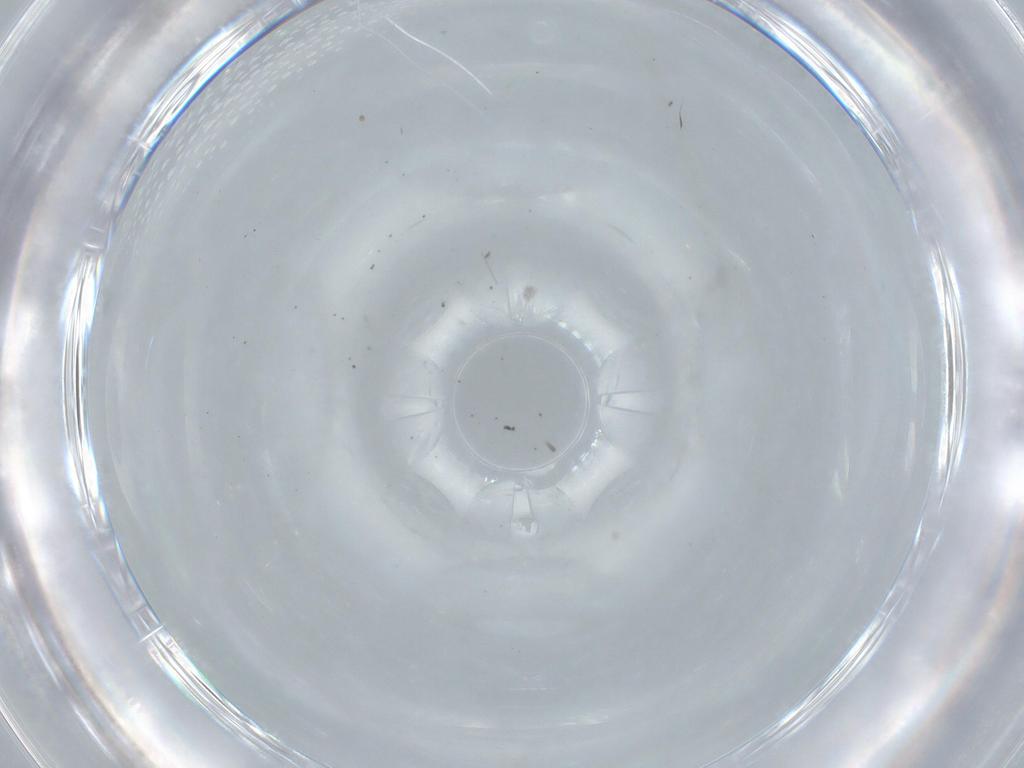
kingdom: Animalia
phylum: Arthropoda
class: Insecta
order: Diptera
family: Cecidomyiidae
